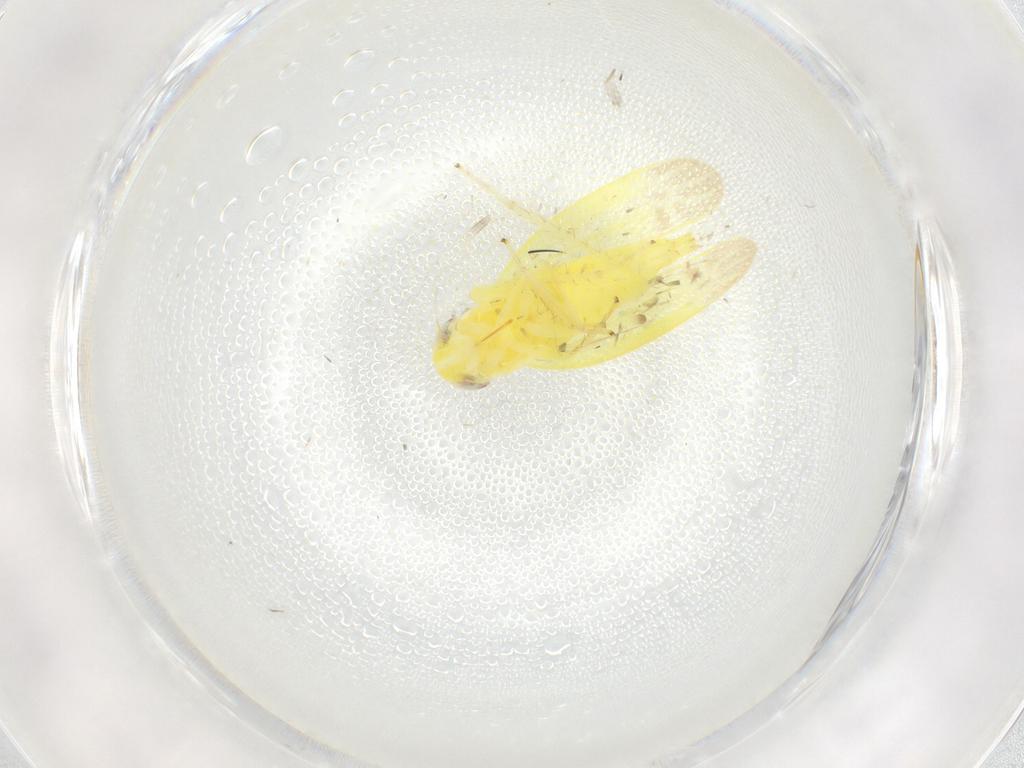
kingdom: Animalia
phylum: Arthropoda
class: Insecta
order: Hemiptera
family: Cicadellidae
